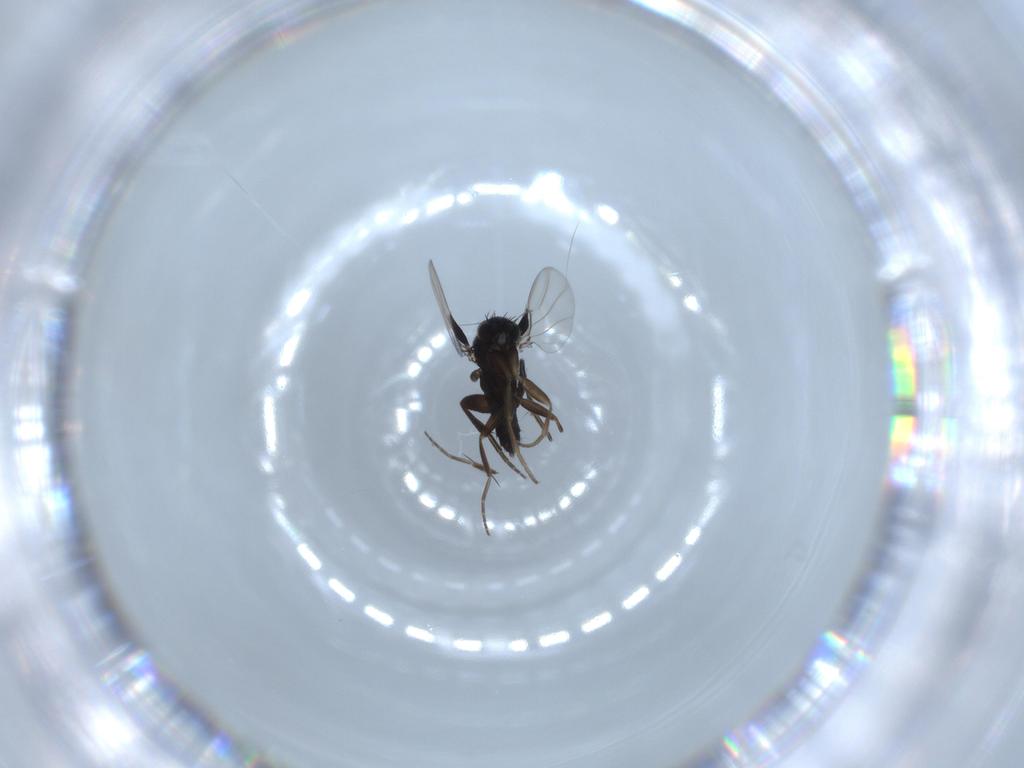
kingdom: Animalia
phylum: Arthropoda
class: Insecta
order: Diptera
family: Phoridae
